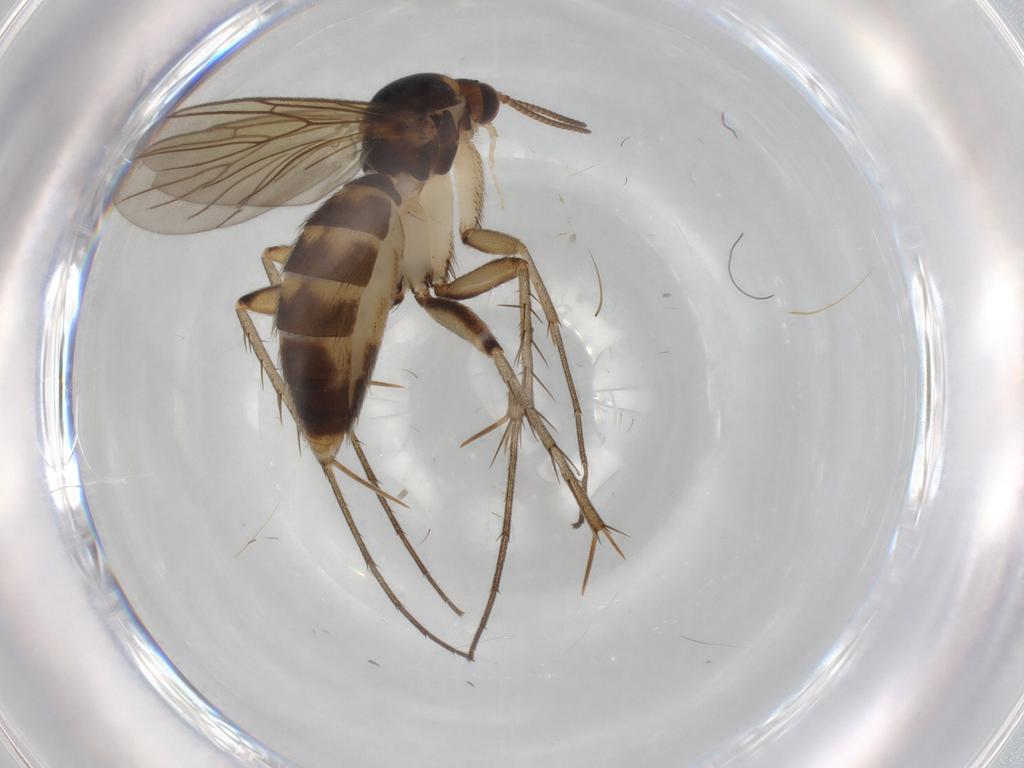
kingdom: Animalia
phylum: Arthropoda
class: Insecta
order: Diptera
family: Mycetophilidae
